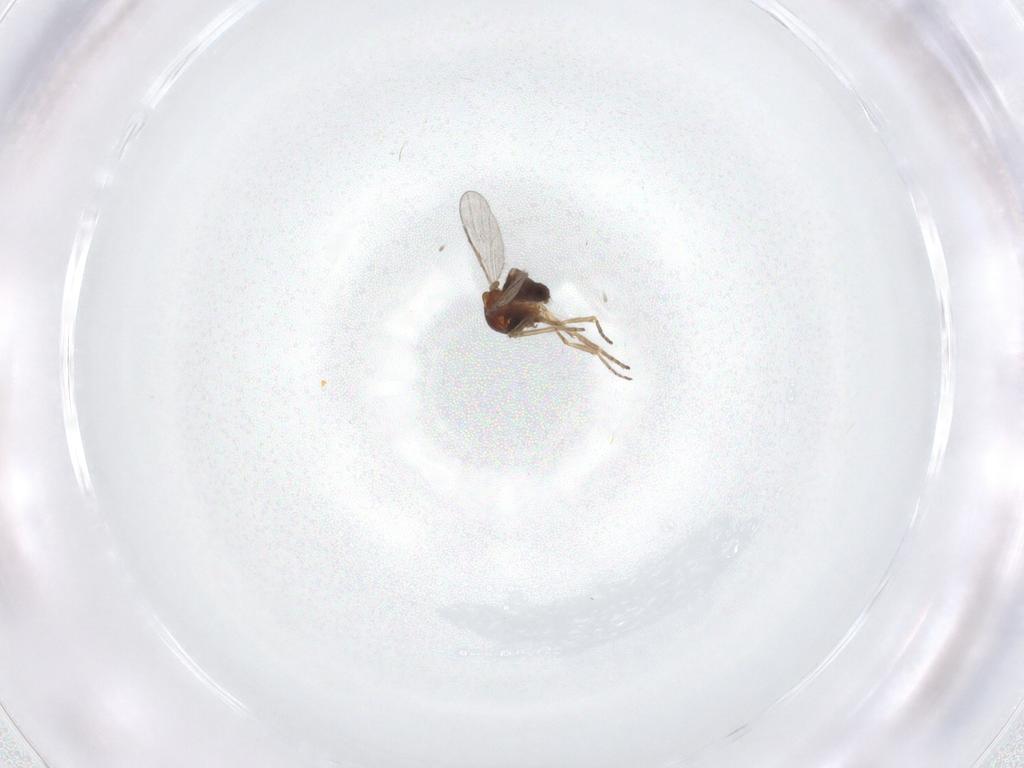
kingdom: Animalia
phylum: Arthropoda
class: Insecta
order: Diptera
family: Ceratopogonidae
